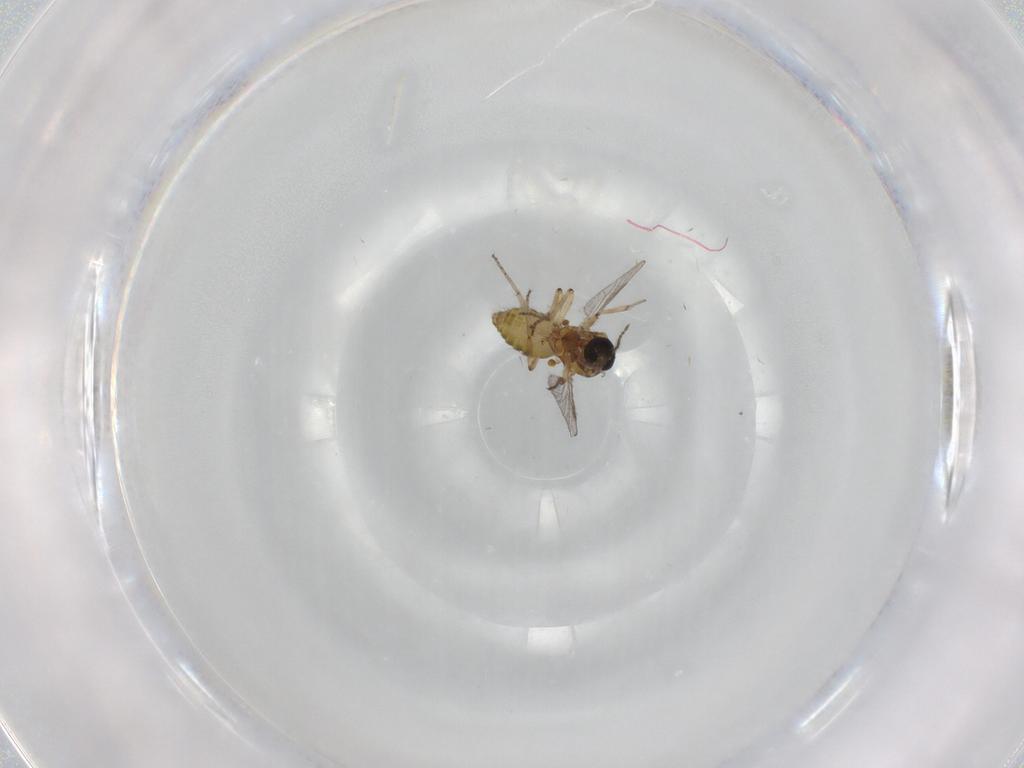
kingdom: Animalia
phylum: Arthropoda
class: Insecta
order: Diptera
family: Ceratopogonidae
